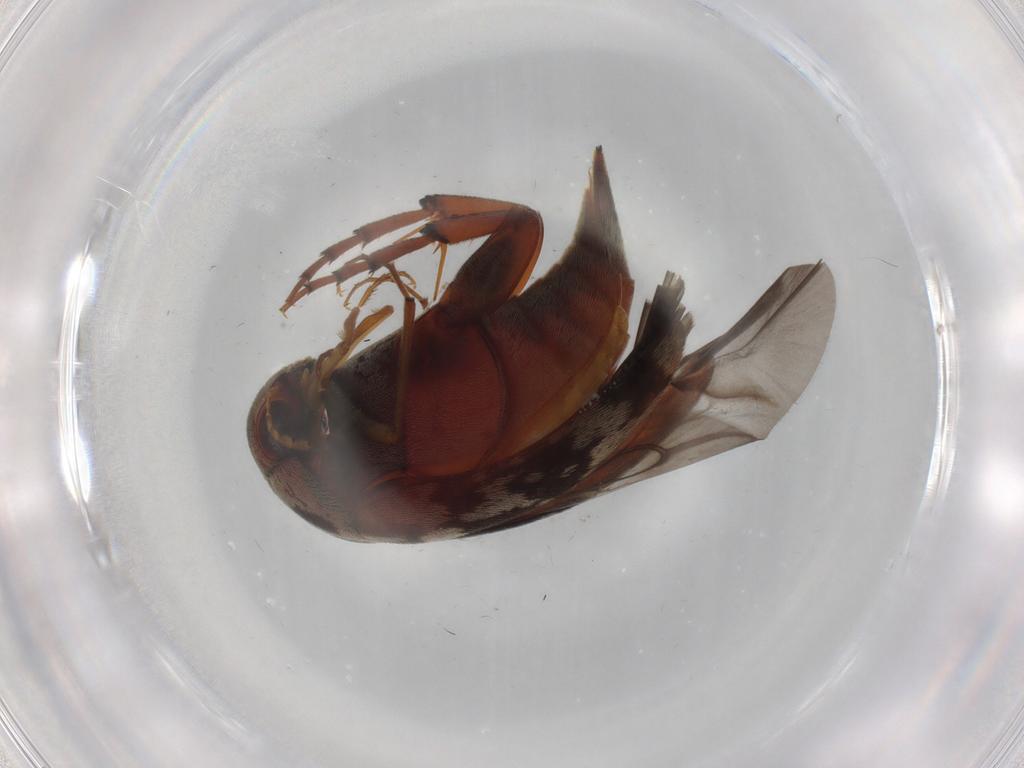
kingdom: Animalia
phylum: Arthropoda
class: Insecta
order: Coleoptera
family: Mordellidae
